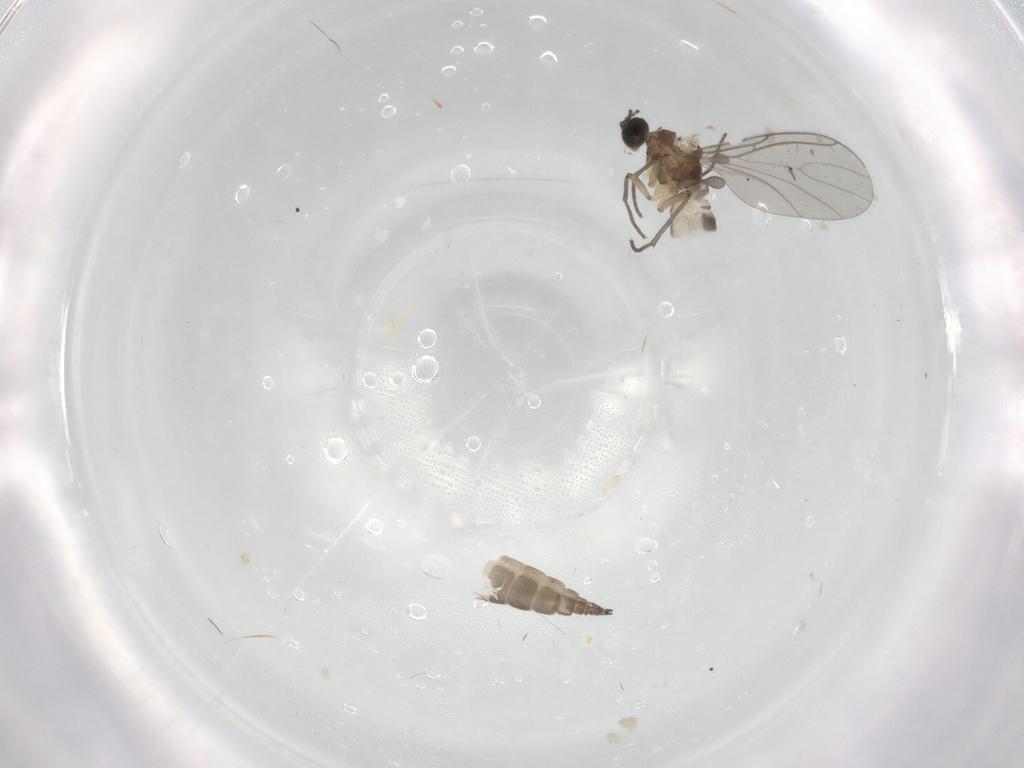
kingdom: Animalia
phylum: Arthropoda
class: Insecta
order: Diptera
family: Sciaridae
